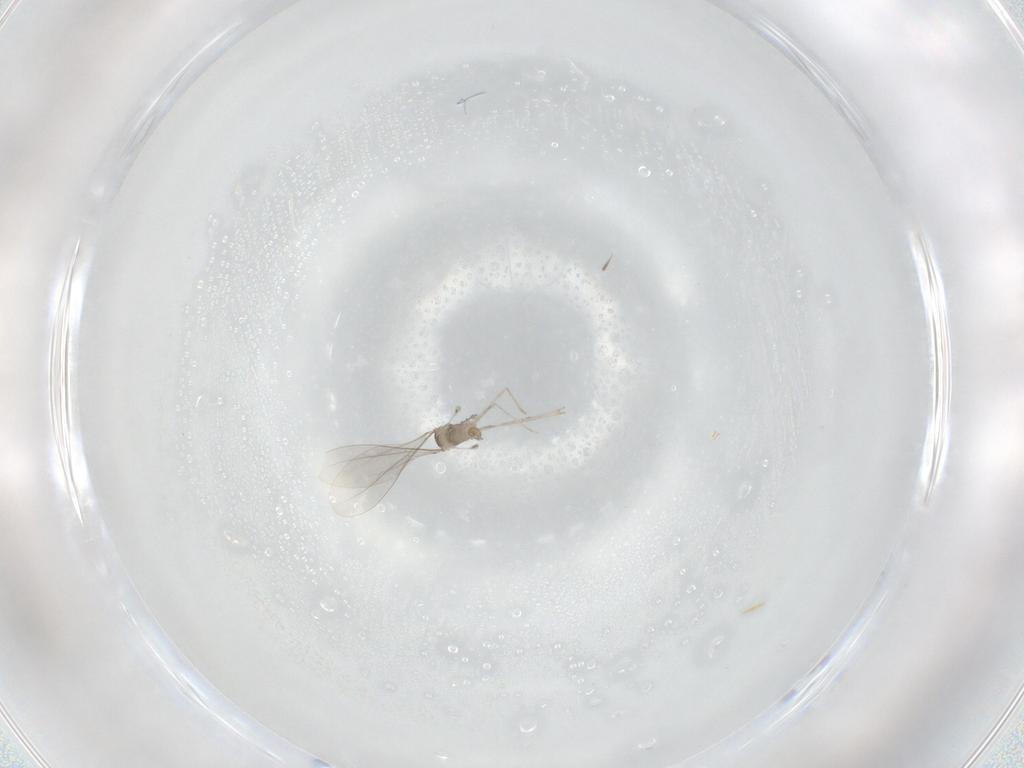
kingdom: Animalia
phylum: Arthropoda
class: Insecta
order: Diptera
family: Cecidomyiidae
